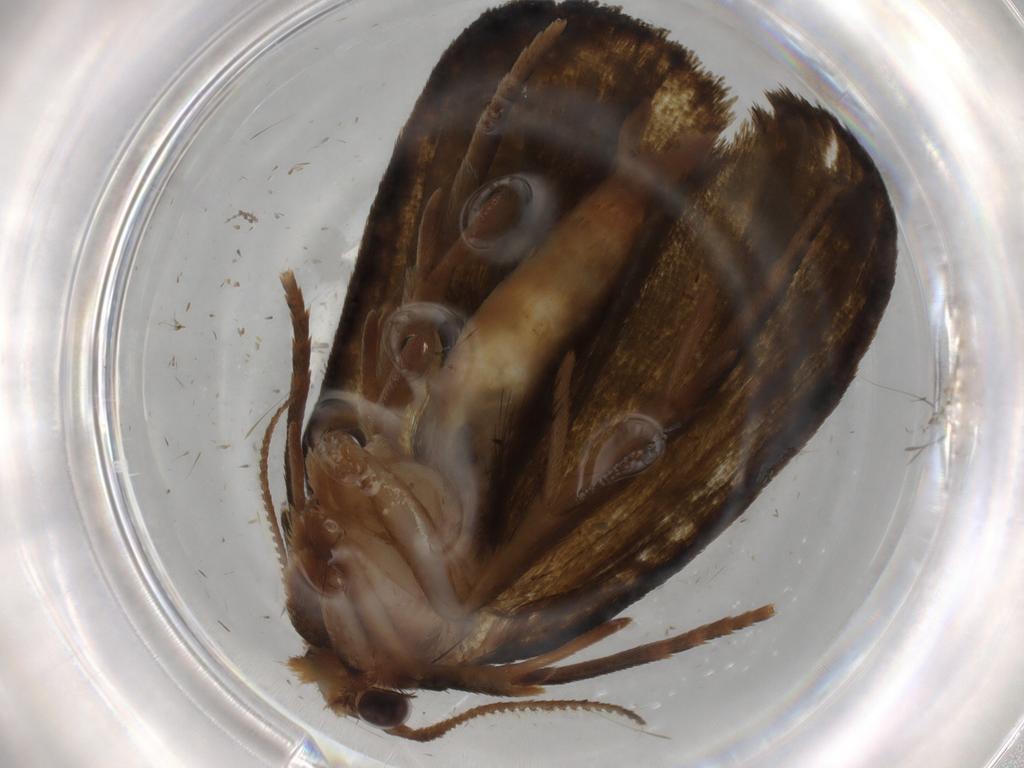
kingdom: Animalia
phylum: Arthropoda
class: Insecta
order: Lepidoptera
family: Geometridae
